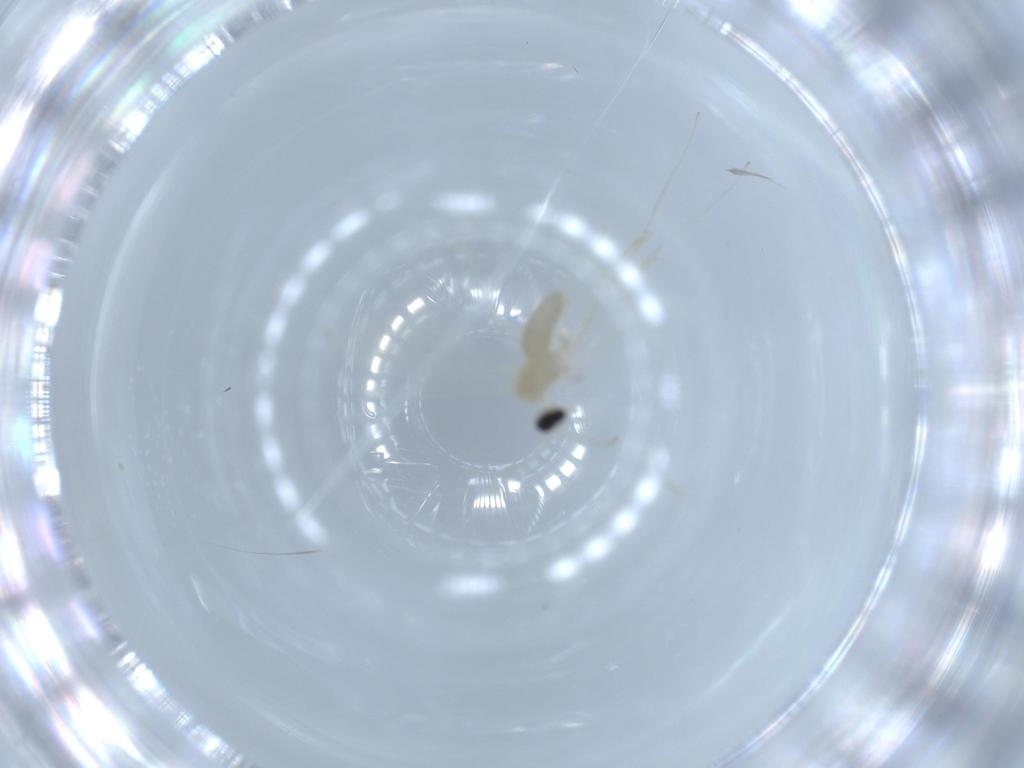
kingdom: Animalia
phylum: Arthropoda
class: Insecta
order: Diptera
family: Cecidomyiidae
